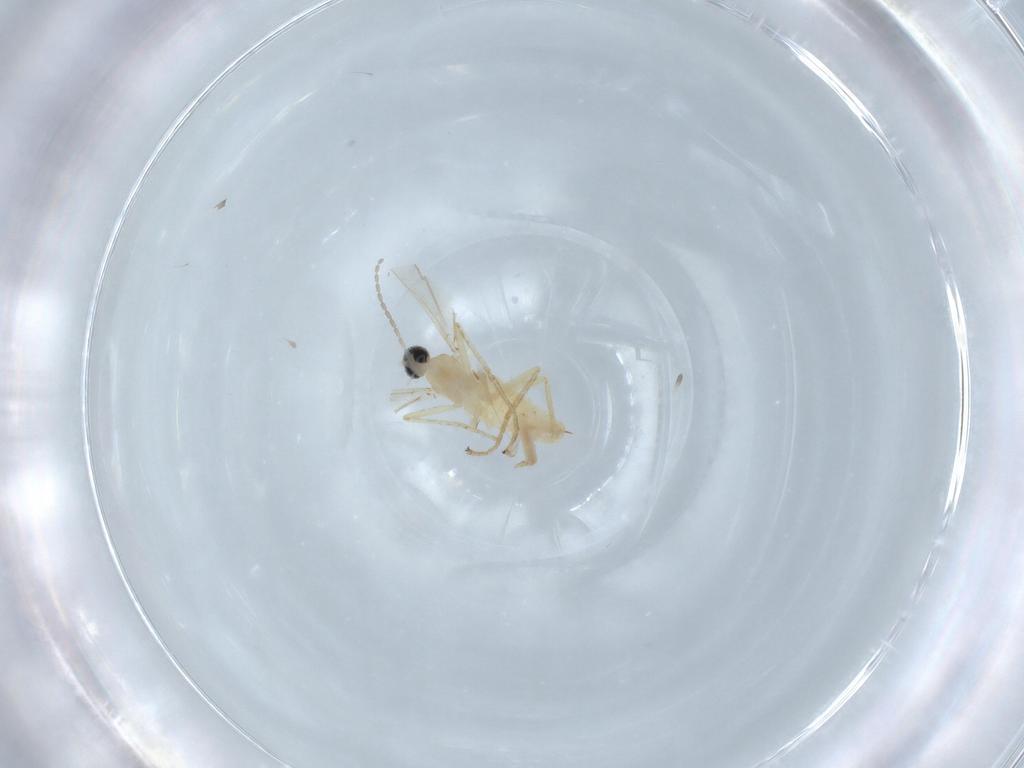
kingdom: Animalia
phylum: Arthropoda
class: Insecta
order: Diptera
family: Cecidomyiidae
